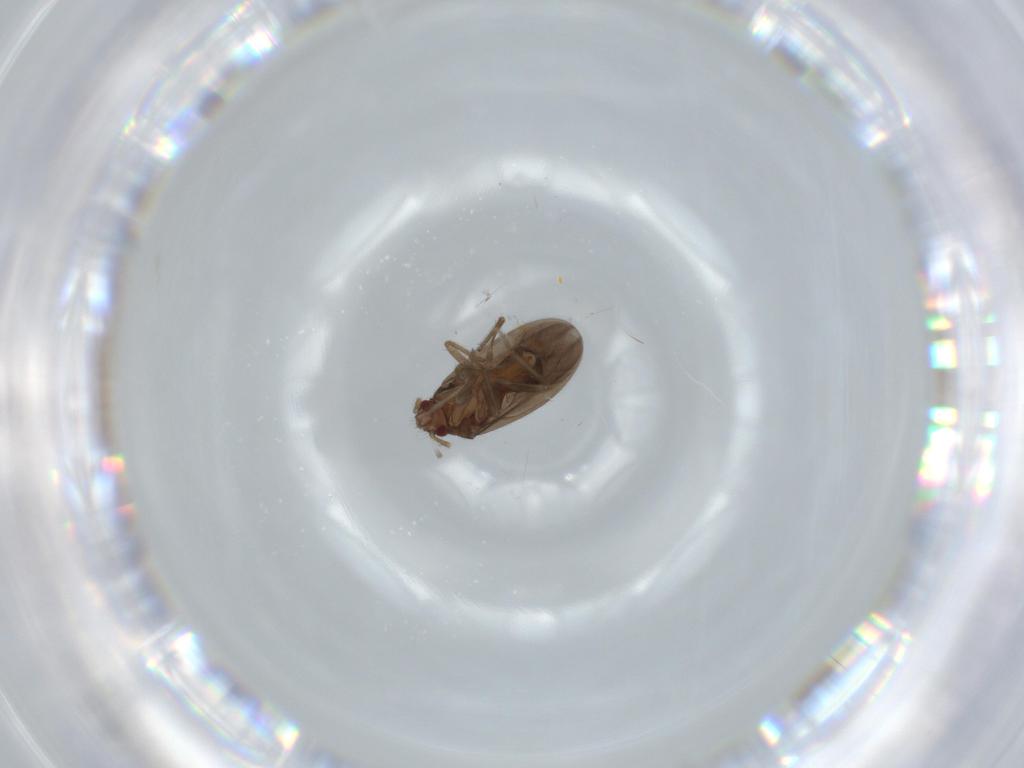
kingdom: Animalia
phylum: Arthropoda
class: Insecta
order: Hemiptera
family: Ceratocombidae
